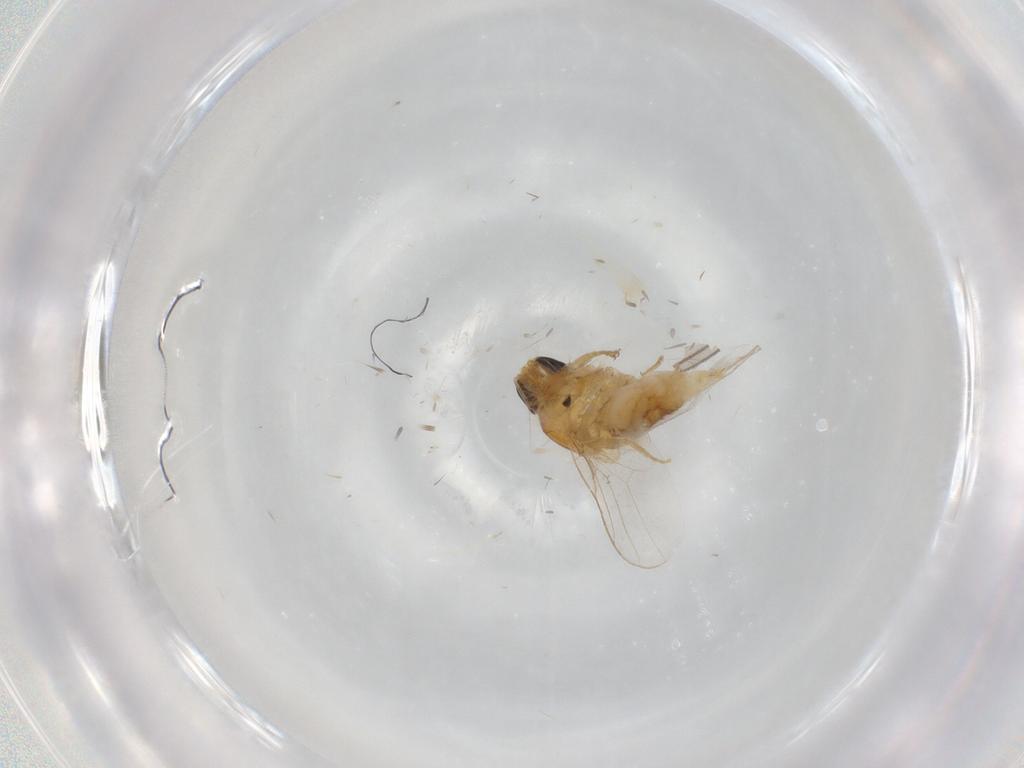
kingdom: Animalia
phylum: Arthropoda
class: Insecta
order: Diptera
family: Chloropidae
